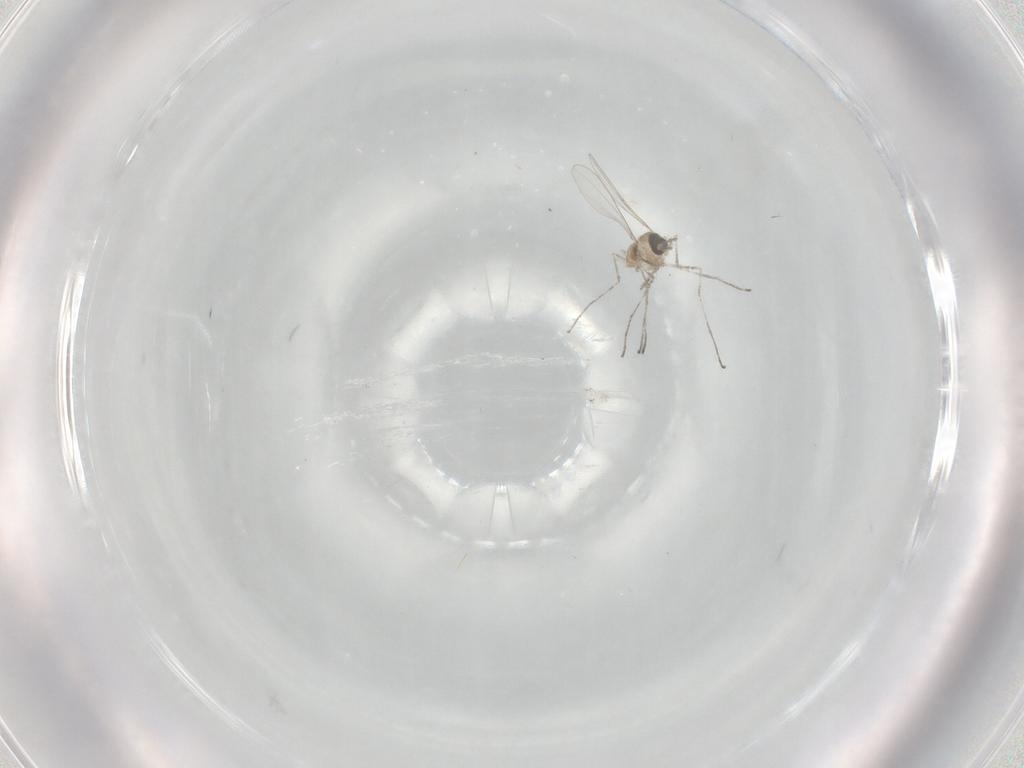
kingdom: Animalia
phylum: Arthropoda
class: Insecta
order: Diptera
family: Cecidomyiidae
